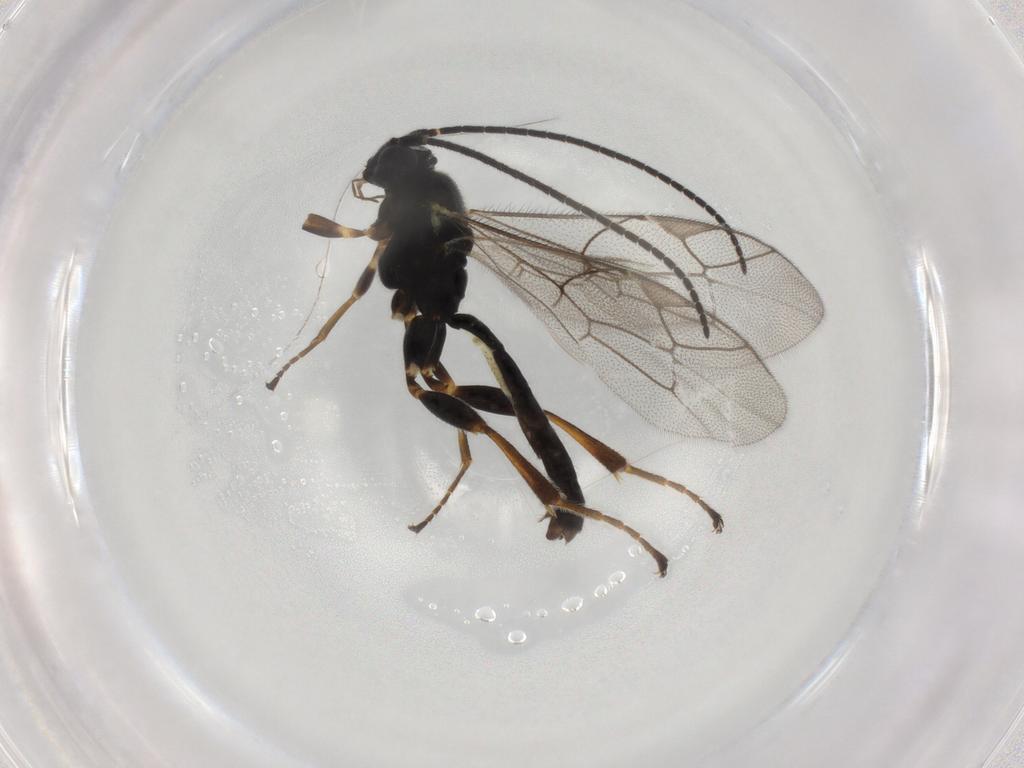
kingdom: Animalia
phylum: Arthropoda
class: Insecta
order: Hymenoptera
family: Ichneumonidae
